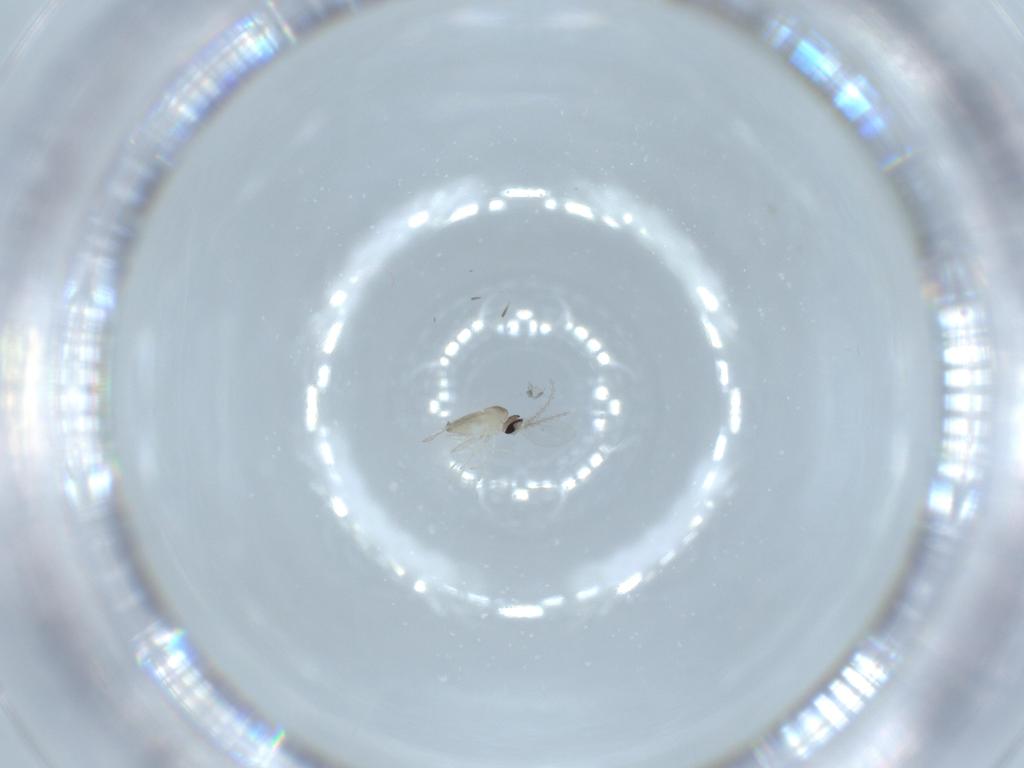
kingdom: Animalia
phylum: Arthropoda
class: Insecta
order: Diptera
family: Cecidomyiidae
